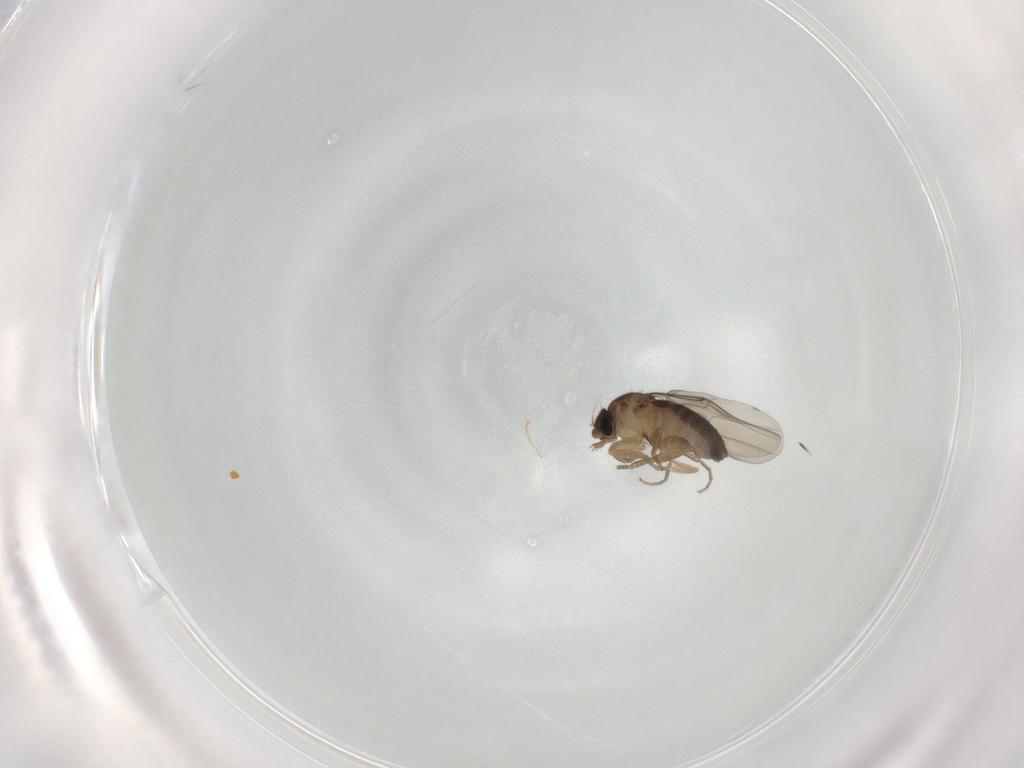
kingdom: Animalia
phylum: Arthropoda
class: Insecta
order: Diptera
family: Phoridae
